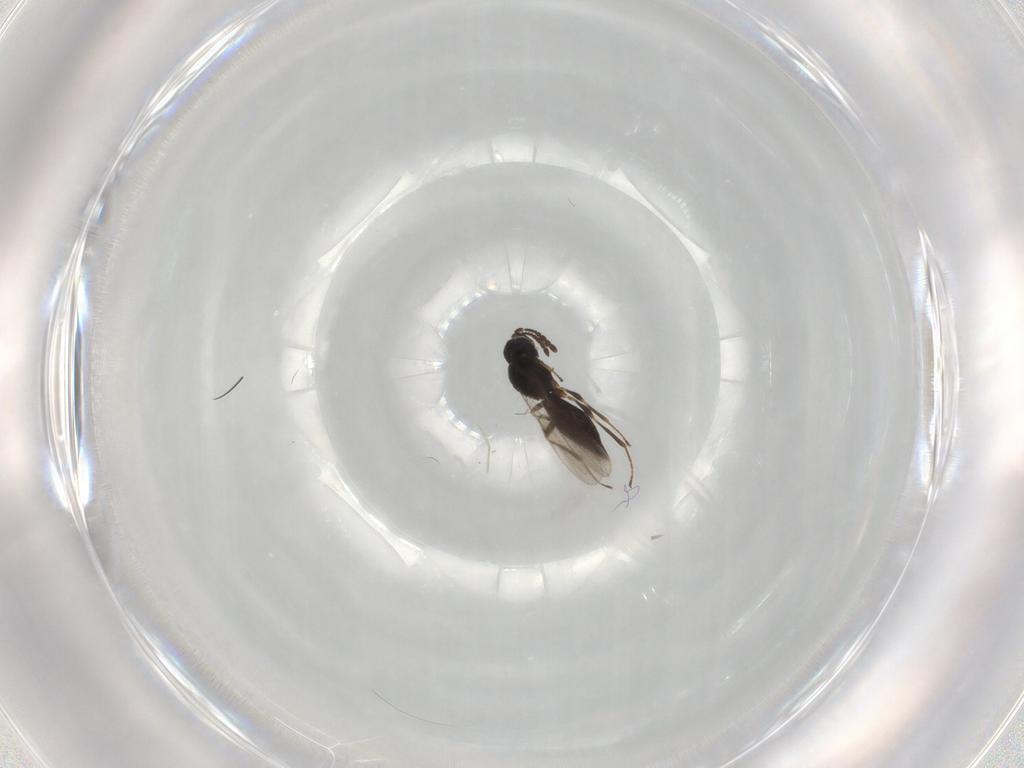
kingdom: Animalia
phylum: Arthropoda
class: Insecta
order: Hymenoptera
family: Platygastridae
